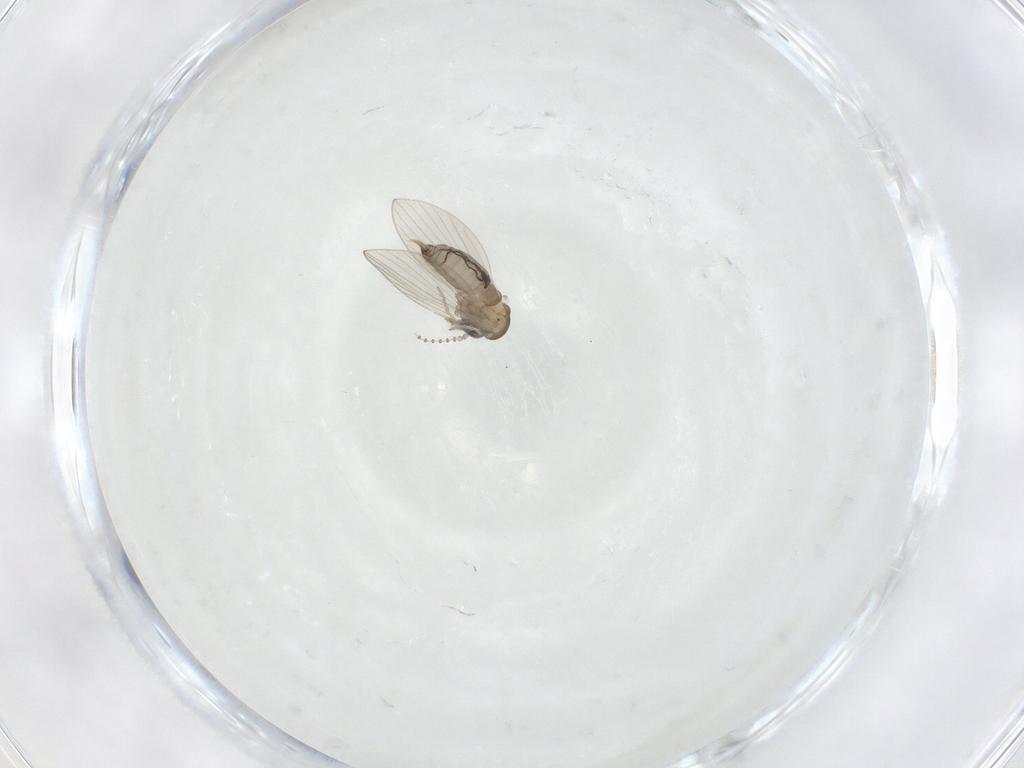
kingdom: Animalia
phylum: Arthropoda
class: Insecta
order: Diptera
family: Psychodidae
